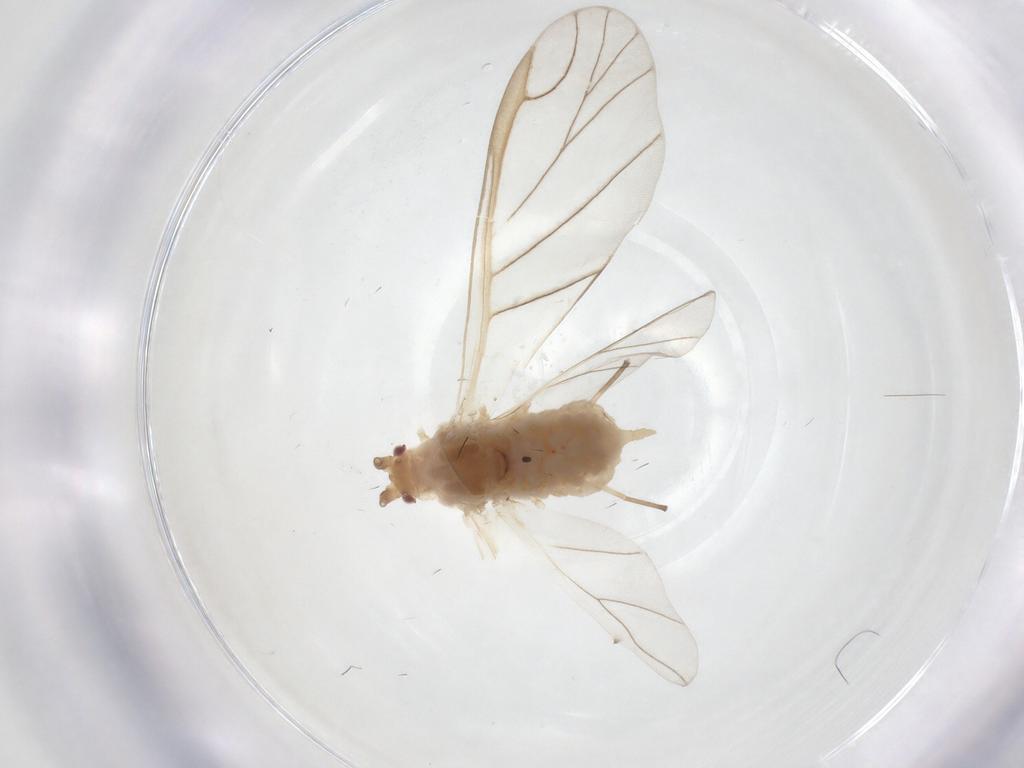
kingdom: Animalia
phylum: Arthropoda
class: Insecta
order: Hemiptera
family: Aphididae
